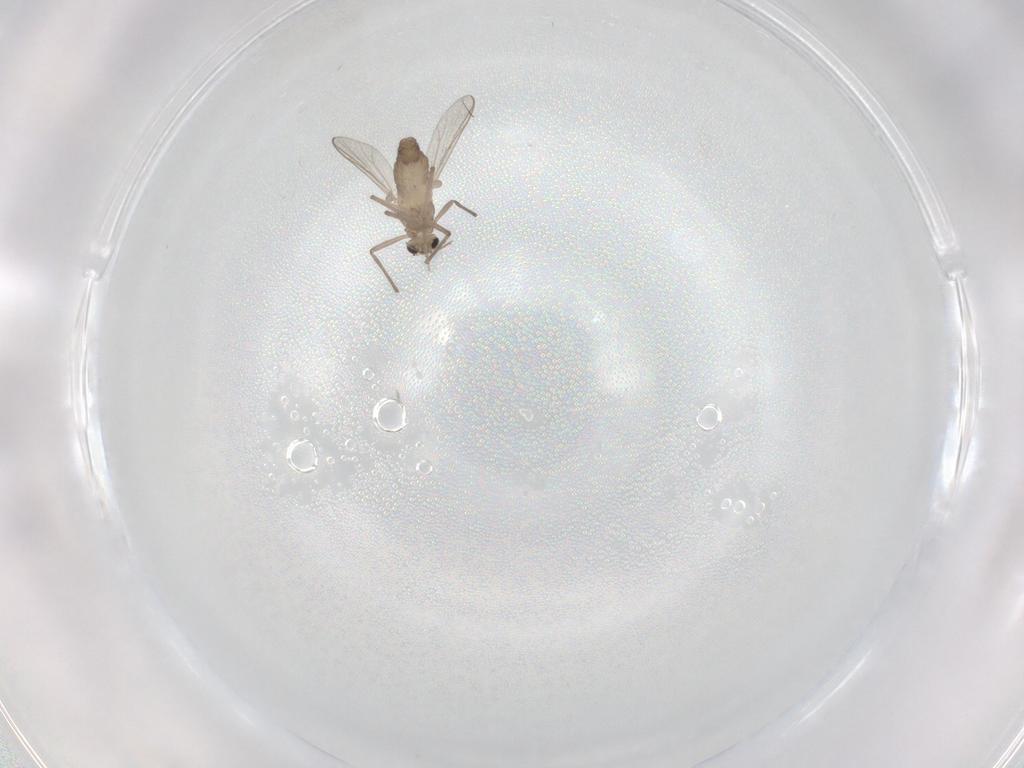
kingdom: Animalia
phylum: Arthropoda
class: Insecta
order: Diptera
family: Chironomidae
